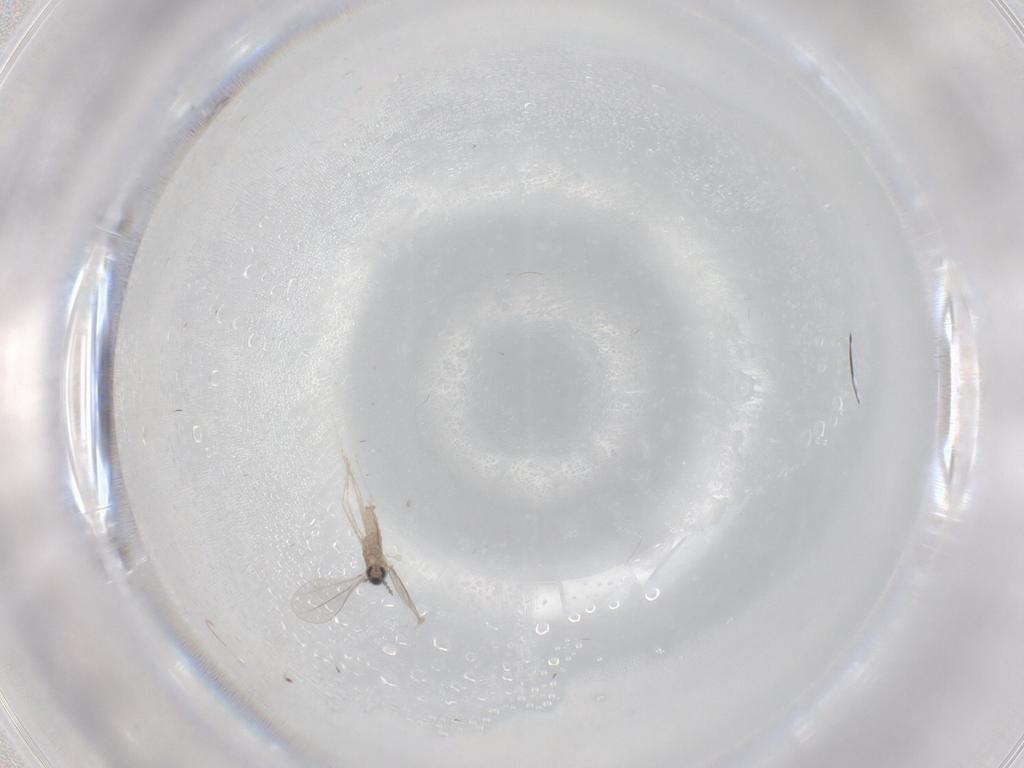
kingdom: Animalia
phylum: Arthropoda
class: Insecta
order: Diptera
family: Cecidomyiidae
